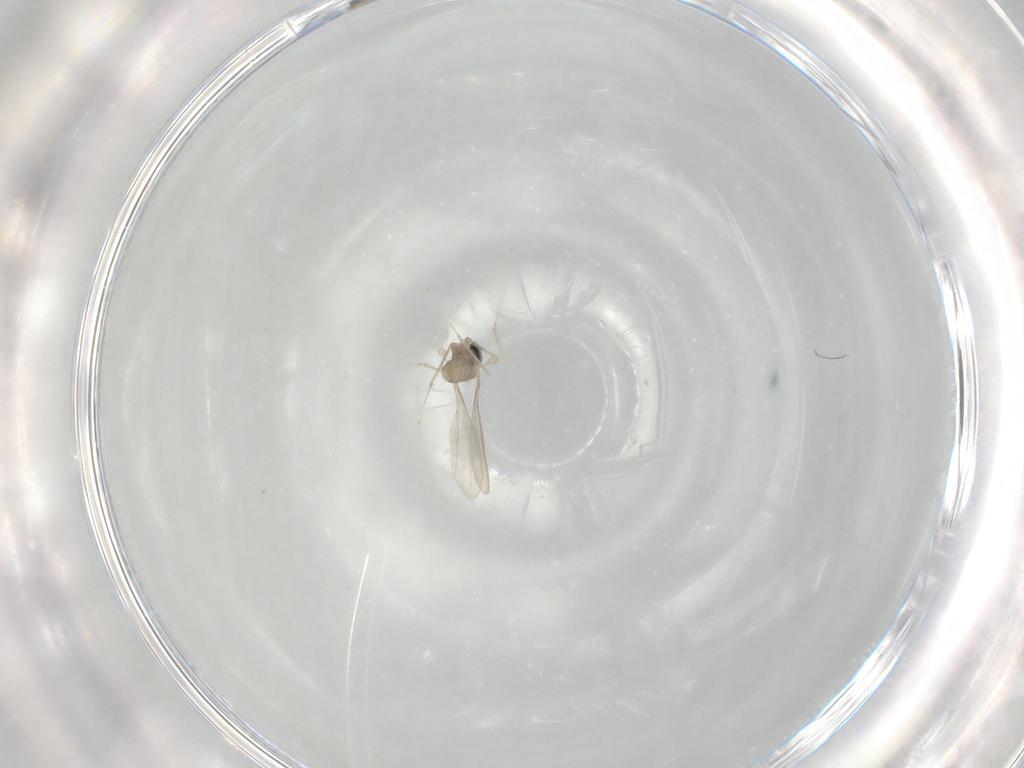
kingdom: Animalia
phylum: Arthropoda
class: Insecta
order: Diptera
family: Cecidomyiidae
